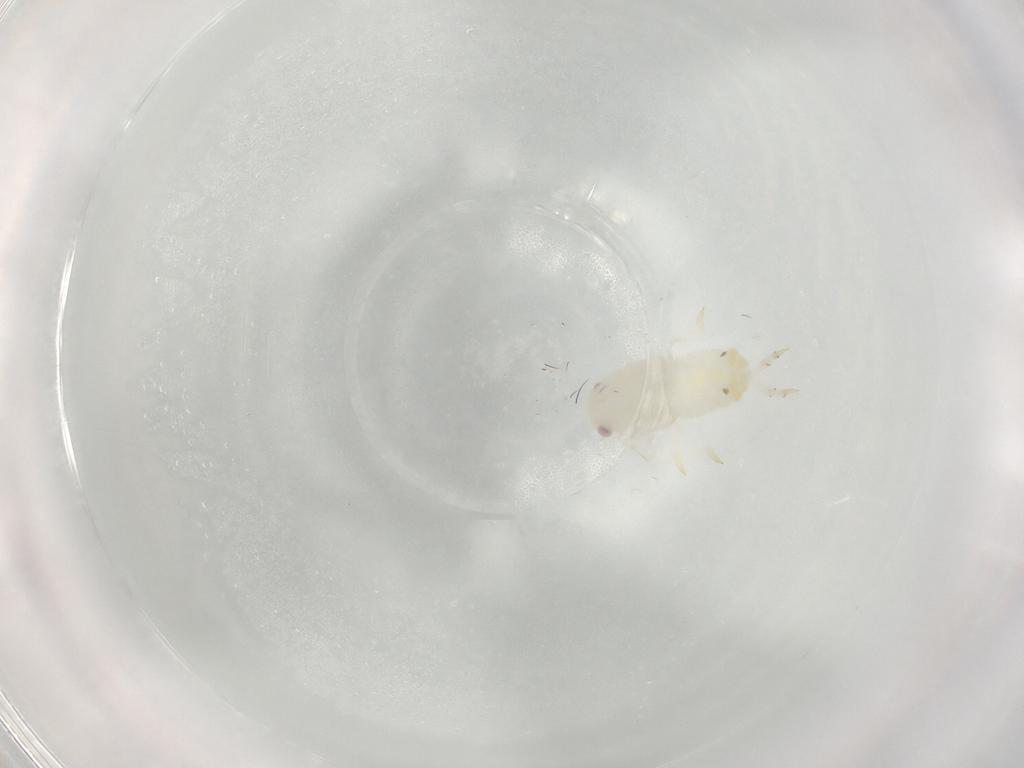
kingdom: Animalia
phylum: Arthropoda
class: Insecta
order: Hemiptera
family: Flatidae
